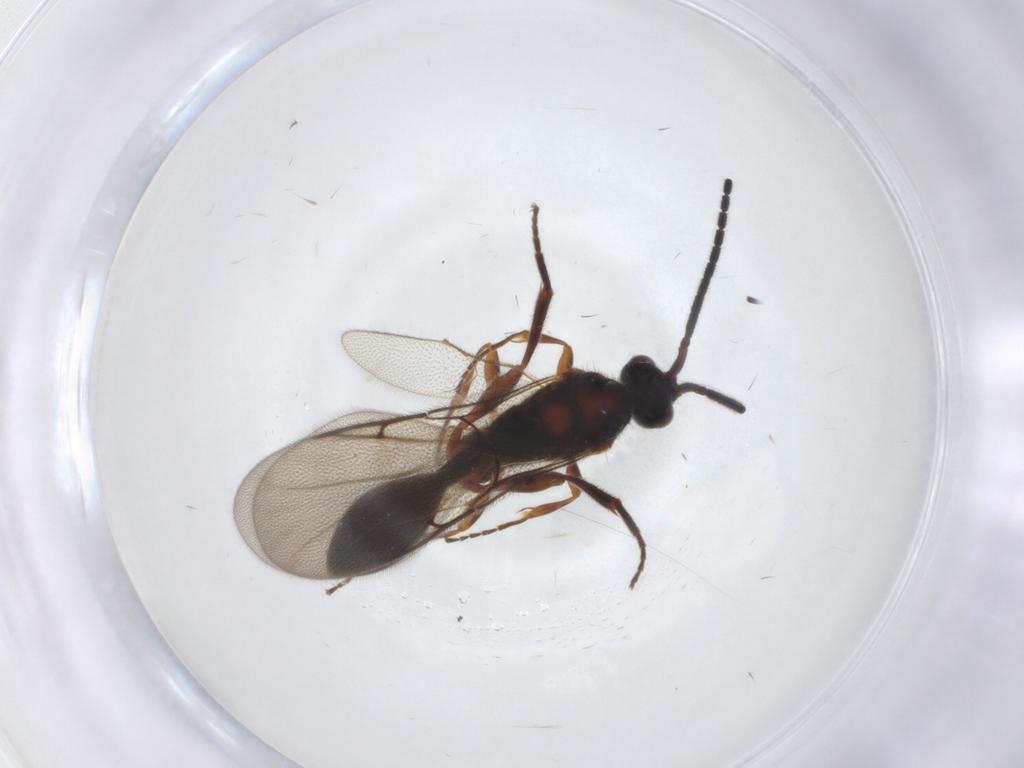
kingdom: Animalia
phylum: Arthropoda
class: Insecta
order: Hymenoptera
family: Diapriidae
